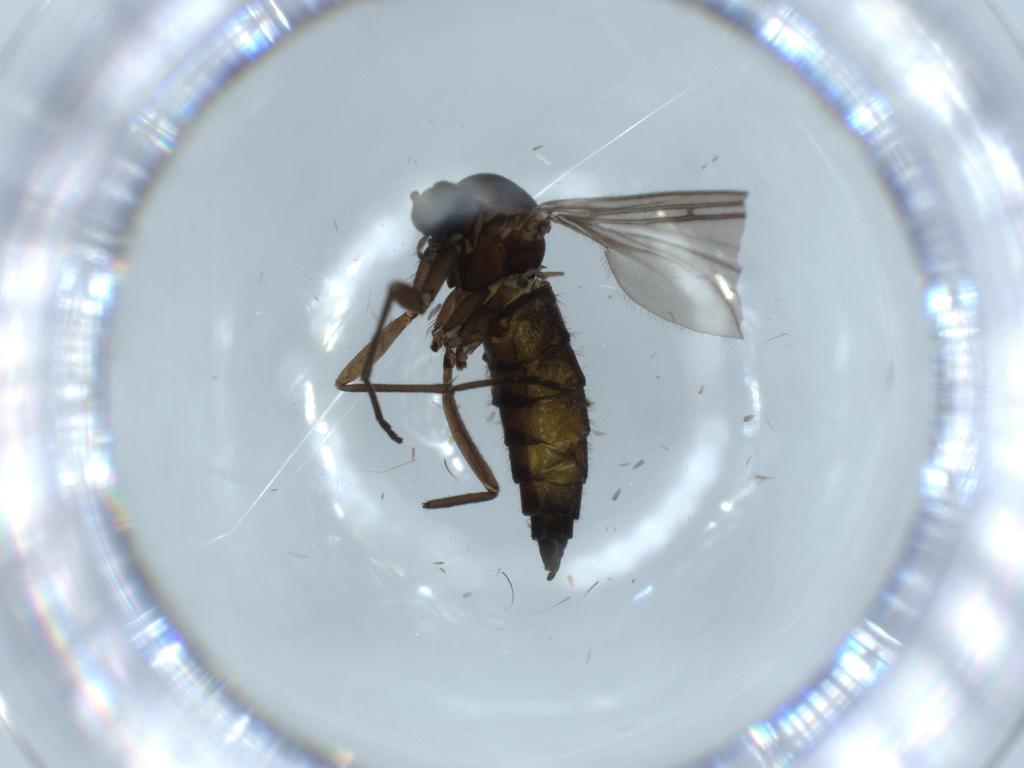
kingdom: Animalia
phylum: Arthropoda
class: Insecta
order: Diptera
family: Sciaridae
